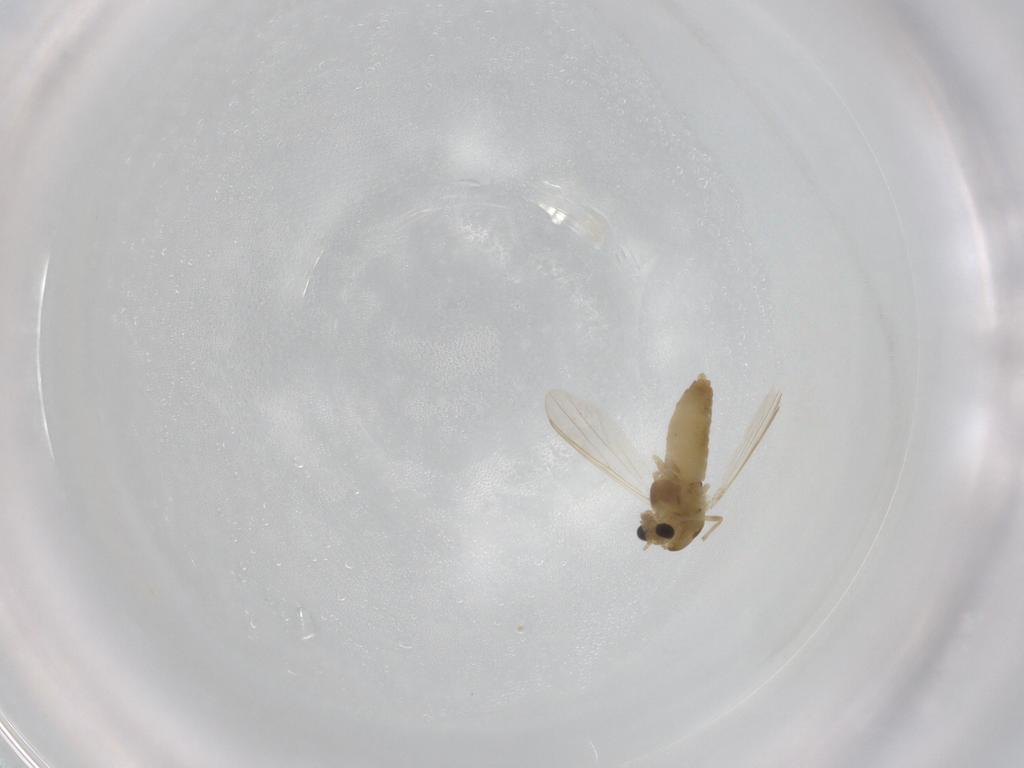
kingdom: Animalia
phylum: Arthropoda
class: Insecta
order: Diptera
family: Chironomidae
